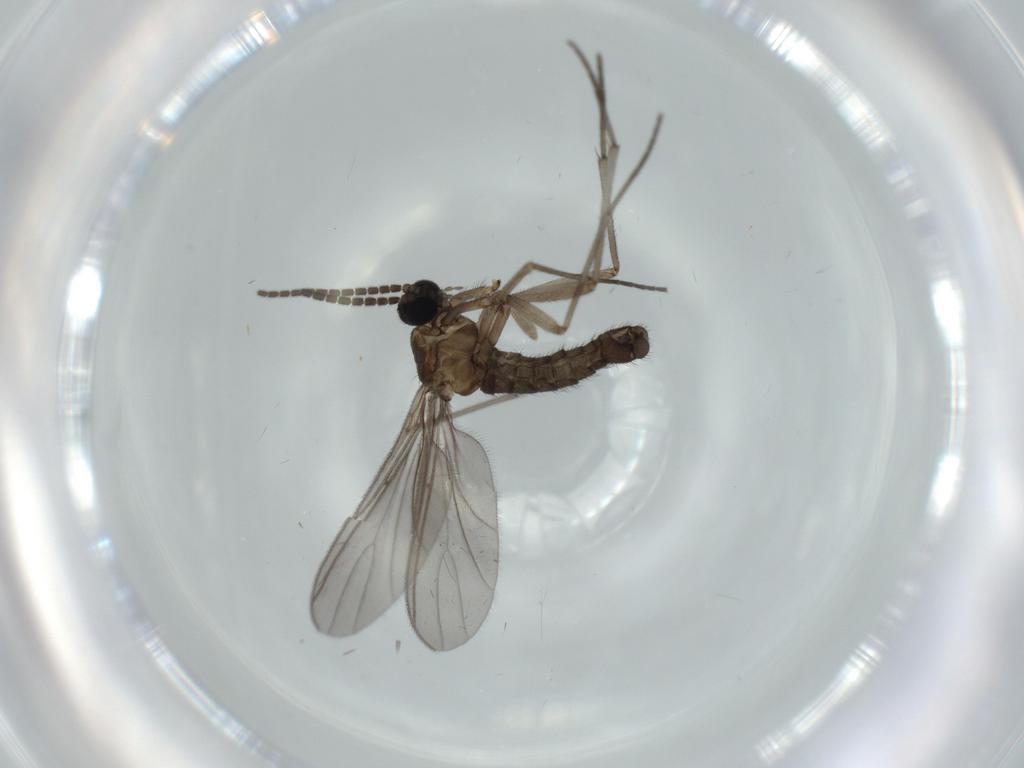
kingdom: Animalia
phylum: Arthropoda
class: Insecta
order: Diptera
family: Sciaridae
